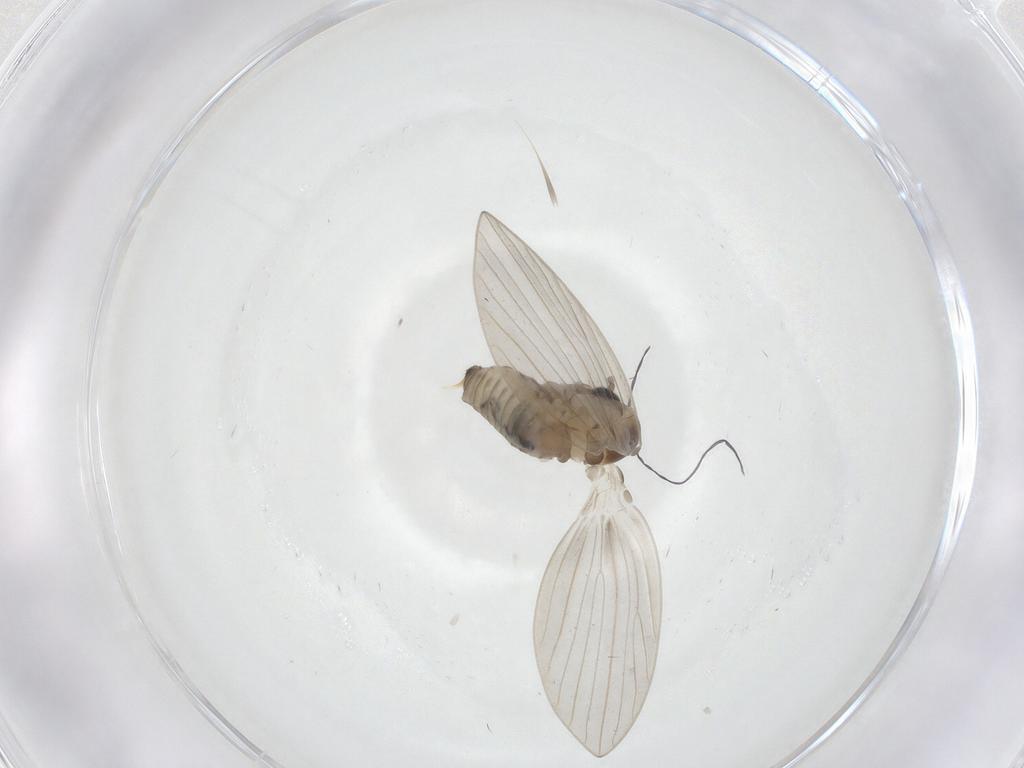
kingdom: Animalia
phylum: Arthropoda
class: Insecta
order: Diptera
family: Psychodidae
